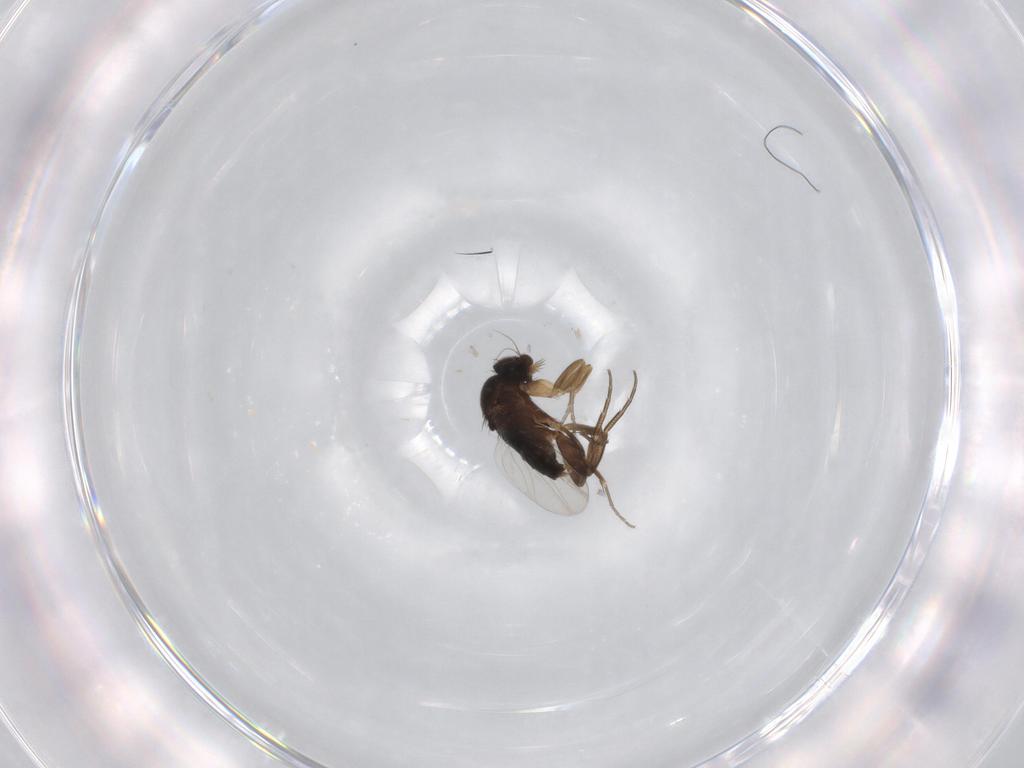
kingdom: Animalia
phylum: Arthropoda
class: Insecta
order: Diptera
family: Phoridae
